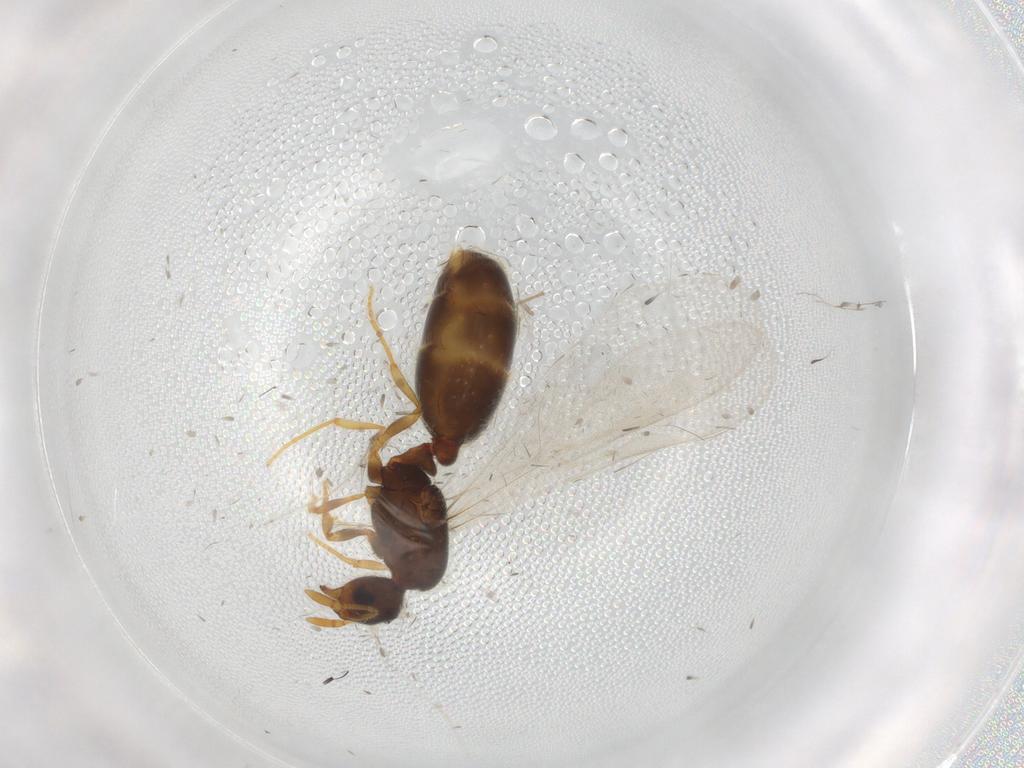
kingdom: Animalia
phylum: Arthropoda
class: Insecta
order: Hymenoptera
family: Formicidae
